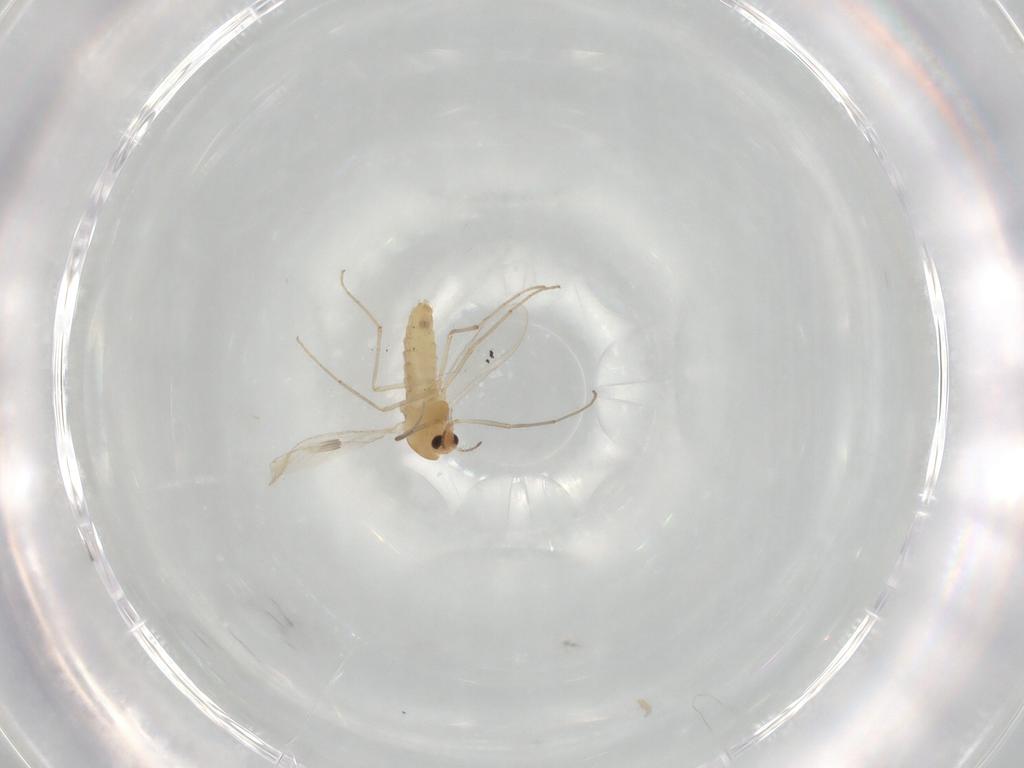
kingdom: Animalia
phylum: Arthropoda
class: Insecta
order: Diptera
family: Chironomidae
